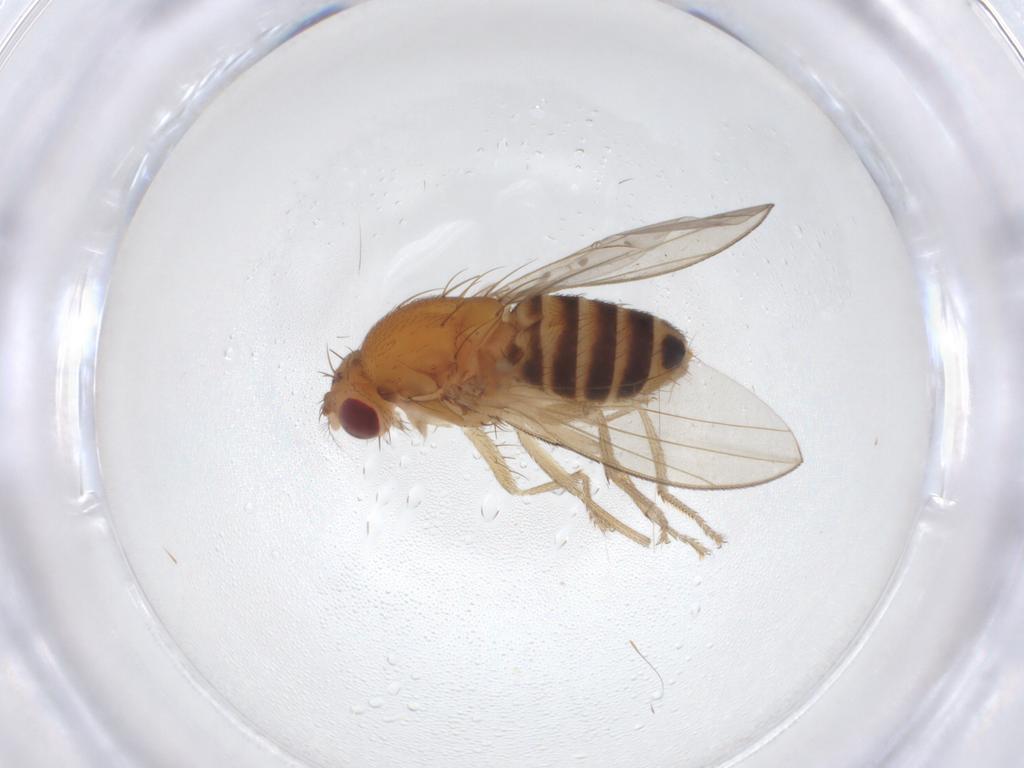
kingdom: Animalia
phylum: Arthropoda
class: Insecta
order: Diptera
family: Drosophilidae
